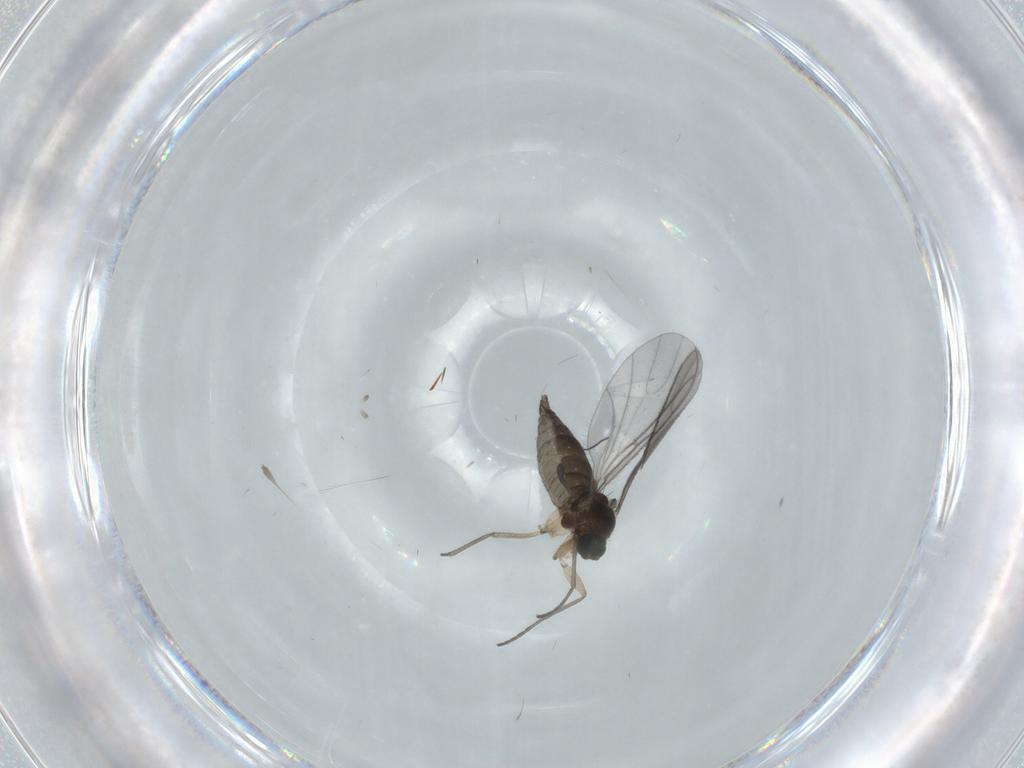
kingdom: Animalia
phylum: Arthropoda
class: Insecta
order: Diptera
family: Sciaridae
